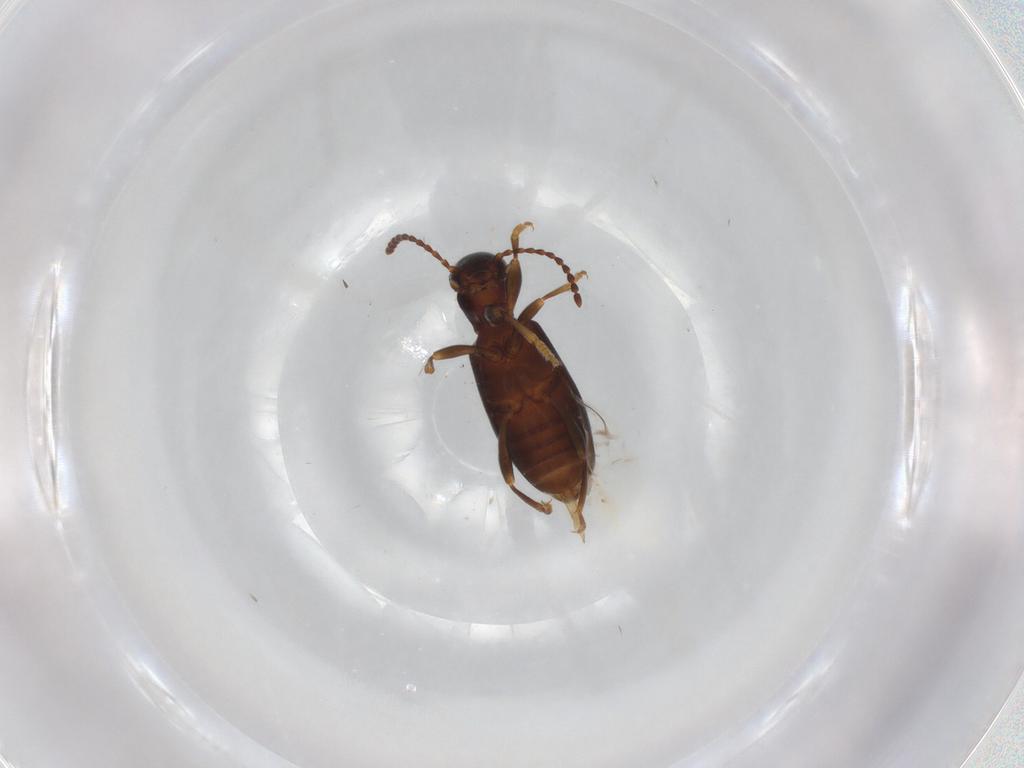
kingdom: Animalia
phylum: Arthropoda
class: Insecta
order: Coleoptera
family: Anthicidae
